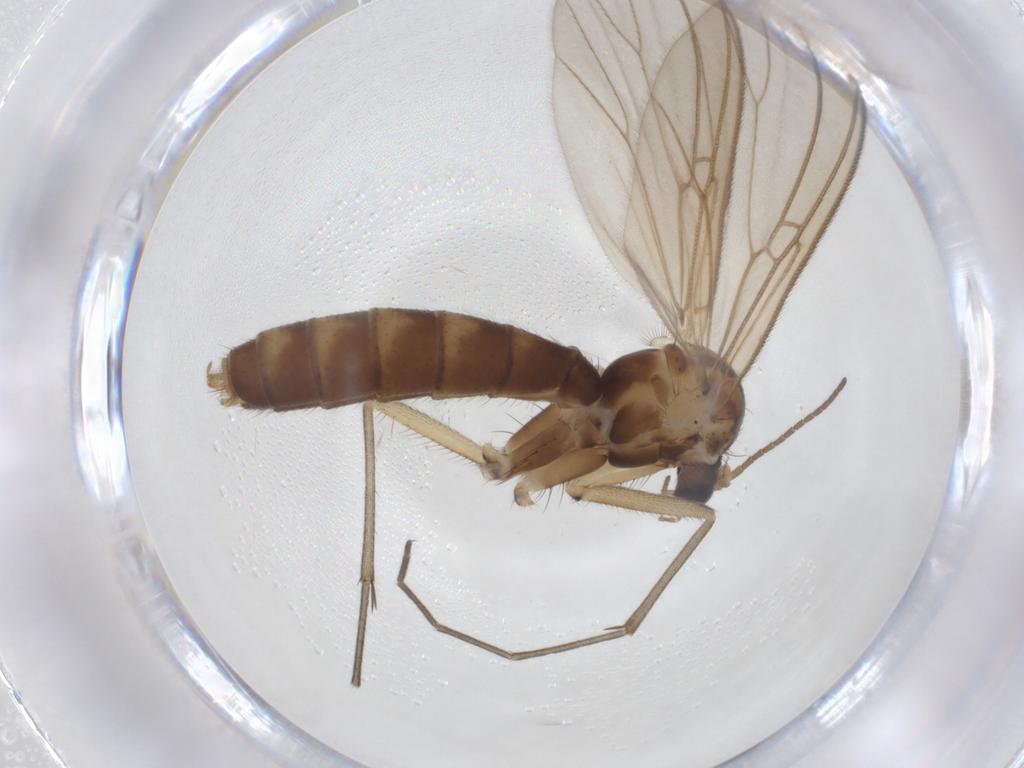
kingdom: Animalia
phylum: Arthropoda
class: Insecta
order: Diptera
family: Mycetophilidae
